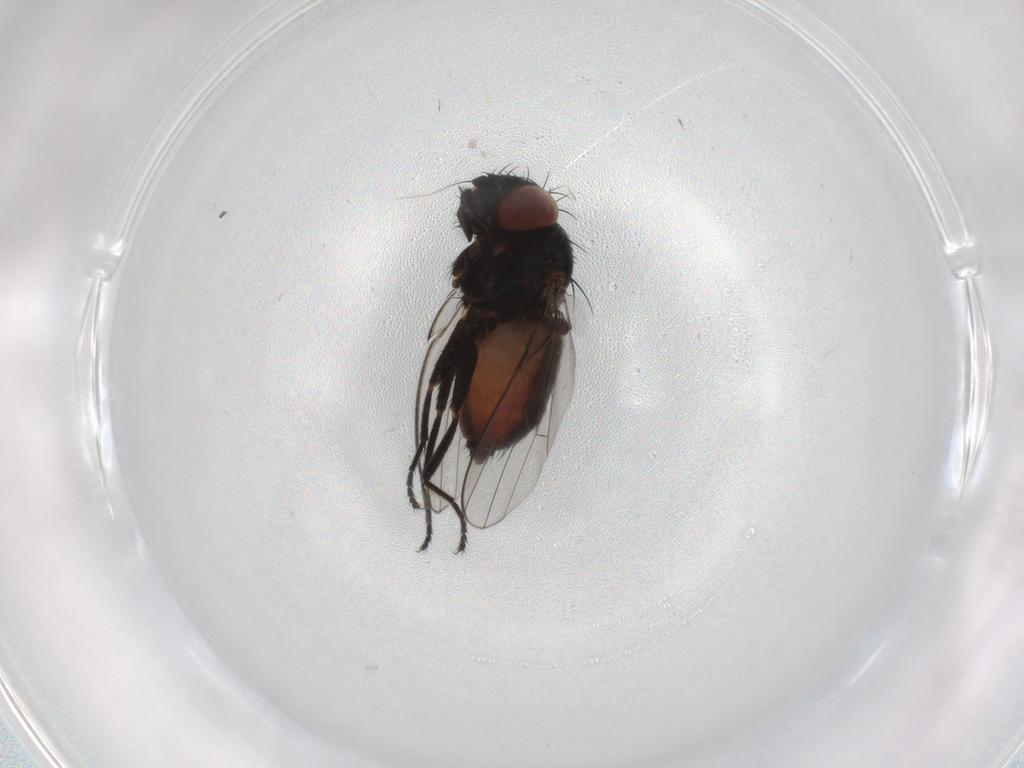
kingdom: Animalia
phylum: Arthropoda
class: Insecta
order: Diptera
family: Milichiidae
